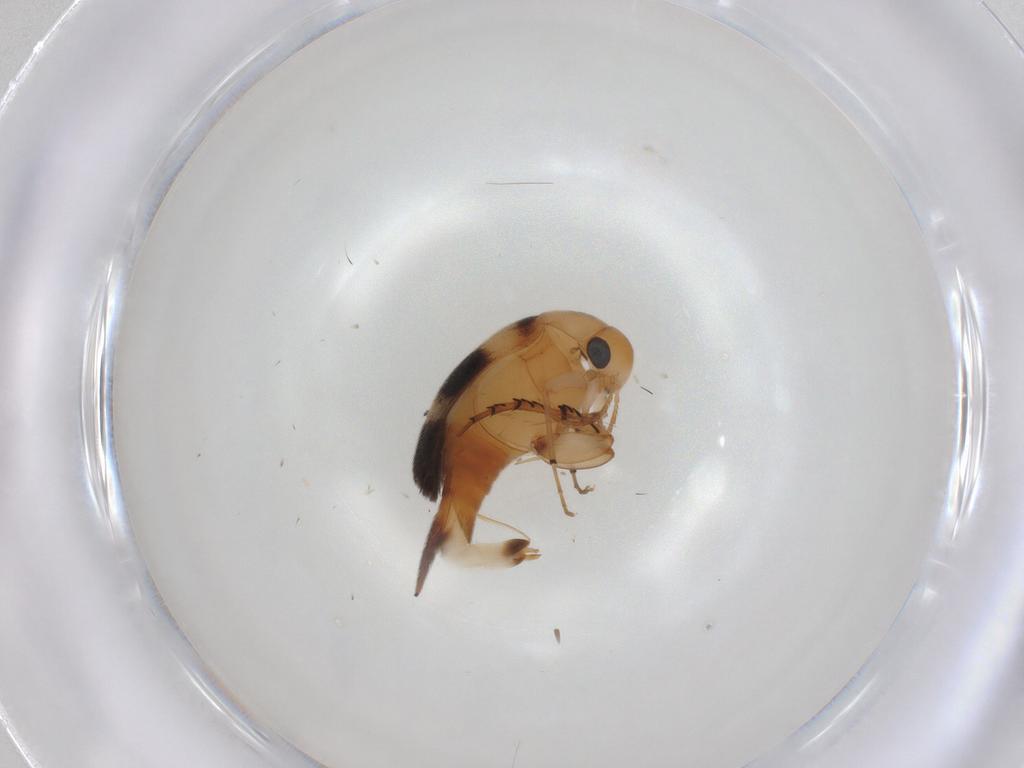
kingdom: Animalia
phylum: Arthropoda
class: Insecta
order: Coleoptera
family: Mordellidae
